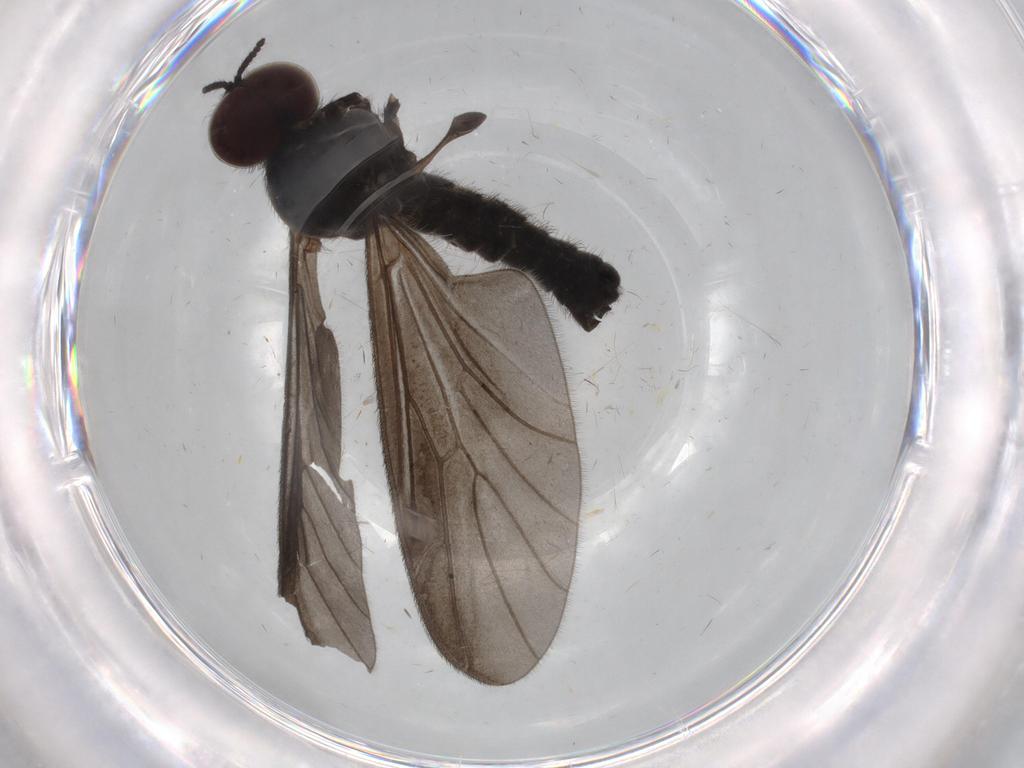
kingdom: Animalia
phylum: Arthropoda
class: Insecta
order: Diptera
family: Bibionidae
